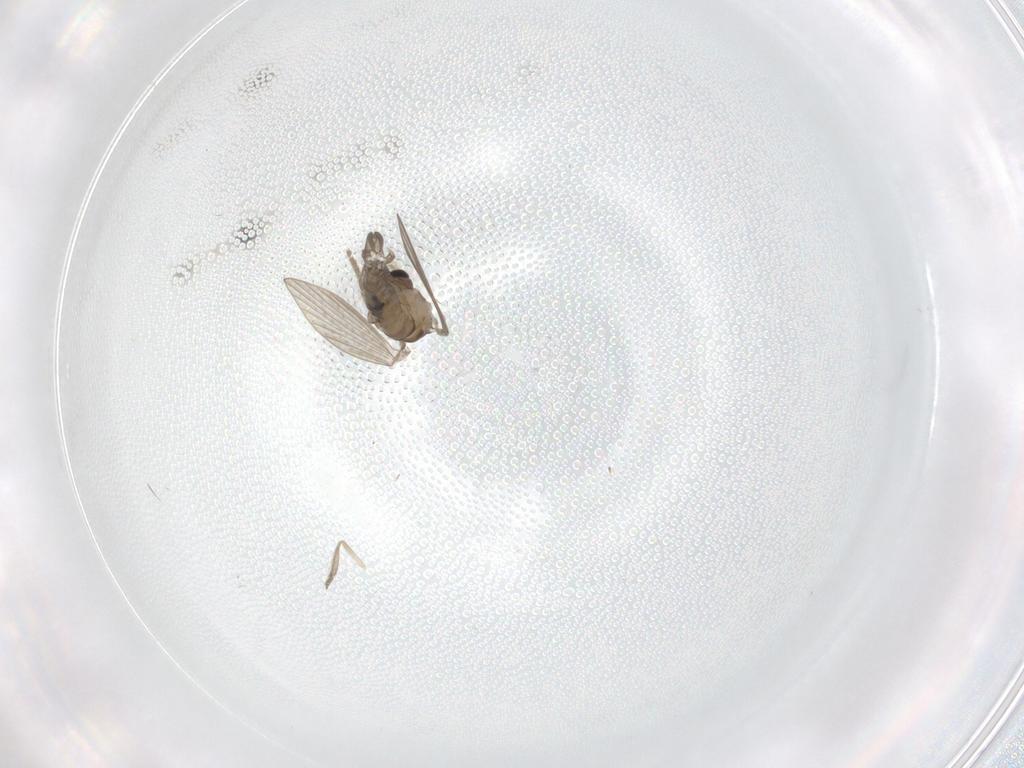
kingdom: Animalia
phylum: Arthropoda
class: Insecta
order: Diptera
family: Psychodidae
